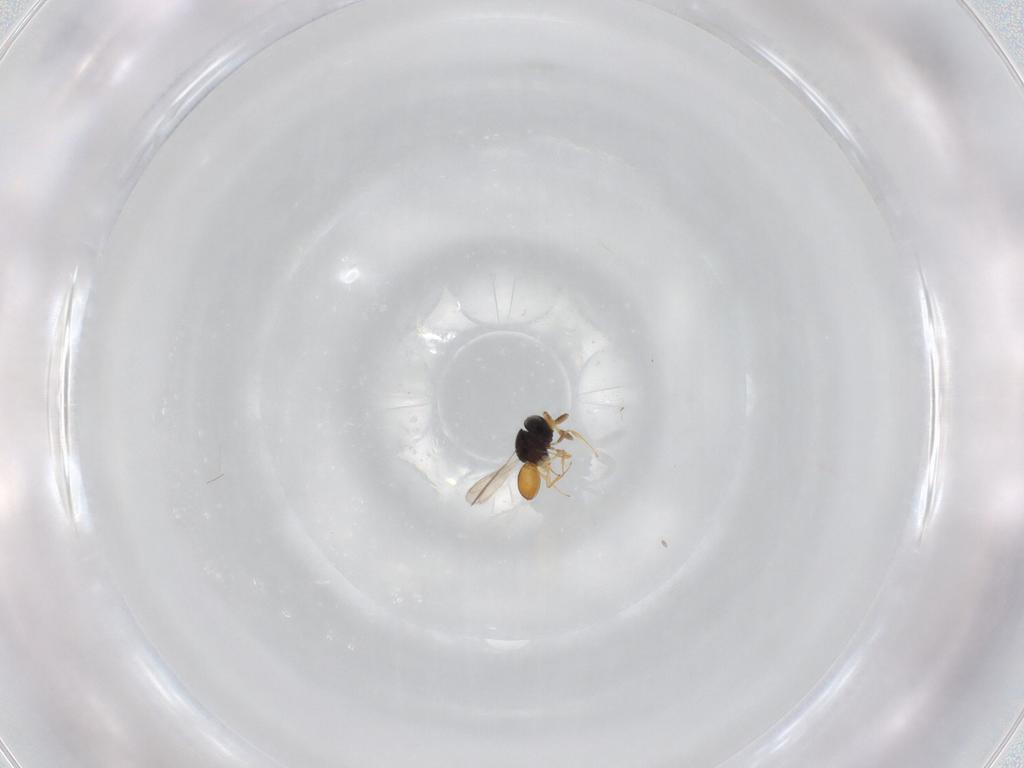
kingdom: Animalia
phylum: Arthropoda
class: Insecta
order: Hymenoptera
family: Scelionidae
